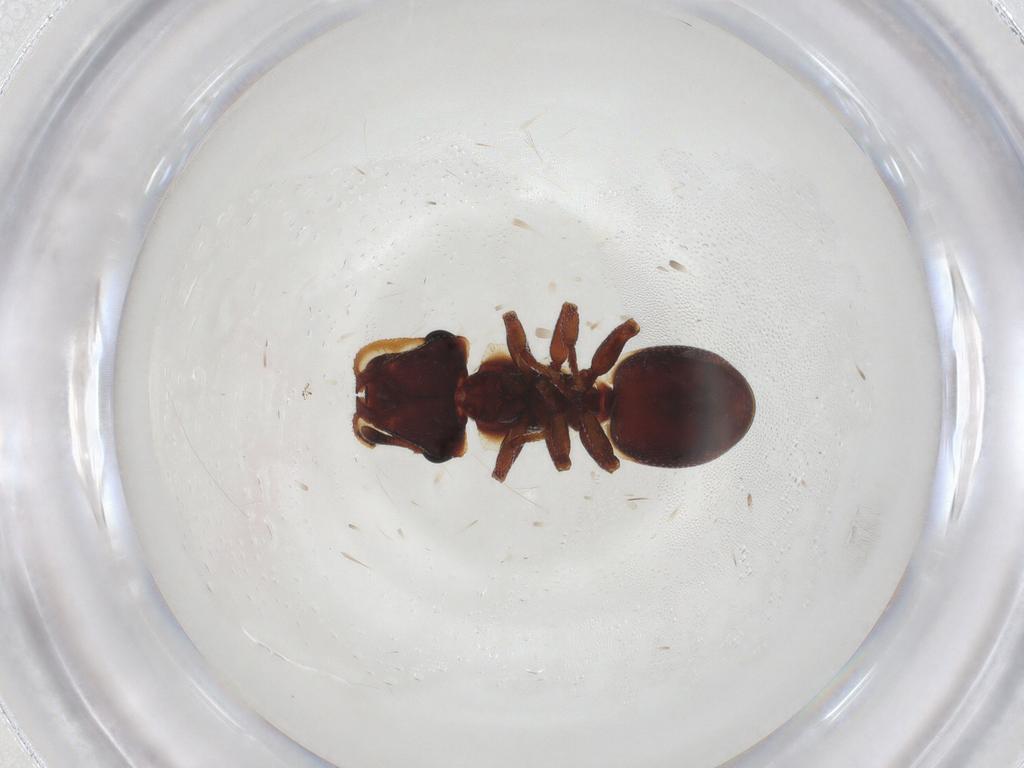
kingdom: Animalia
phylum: Arthropoda
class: Insecta
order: Hymenoptera
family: Formicidae
